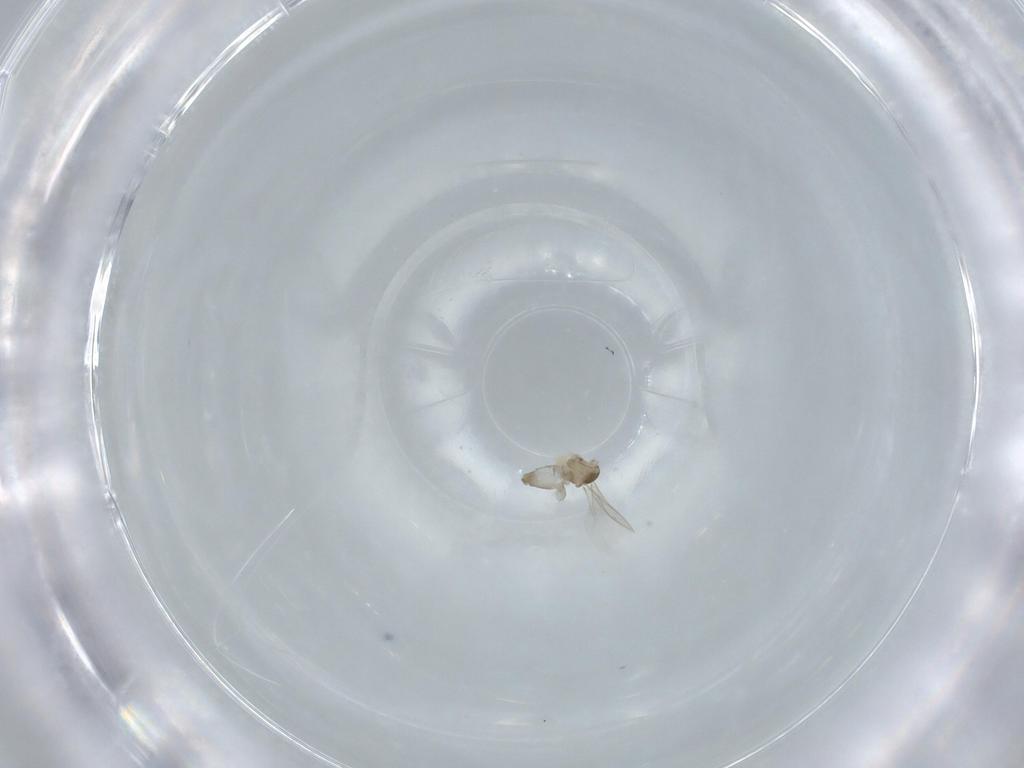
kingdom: Animalia
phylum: Arthropoda
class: Insecta
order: Diptera
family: Cecidomyiidae
